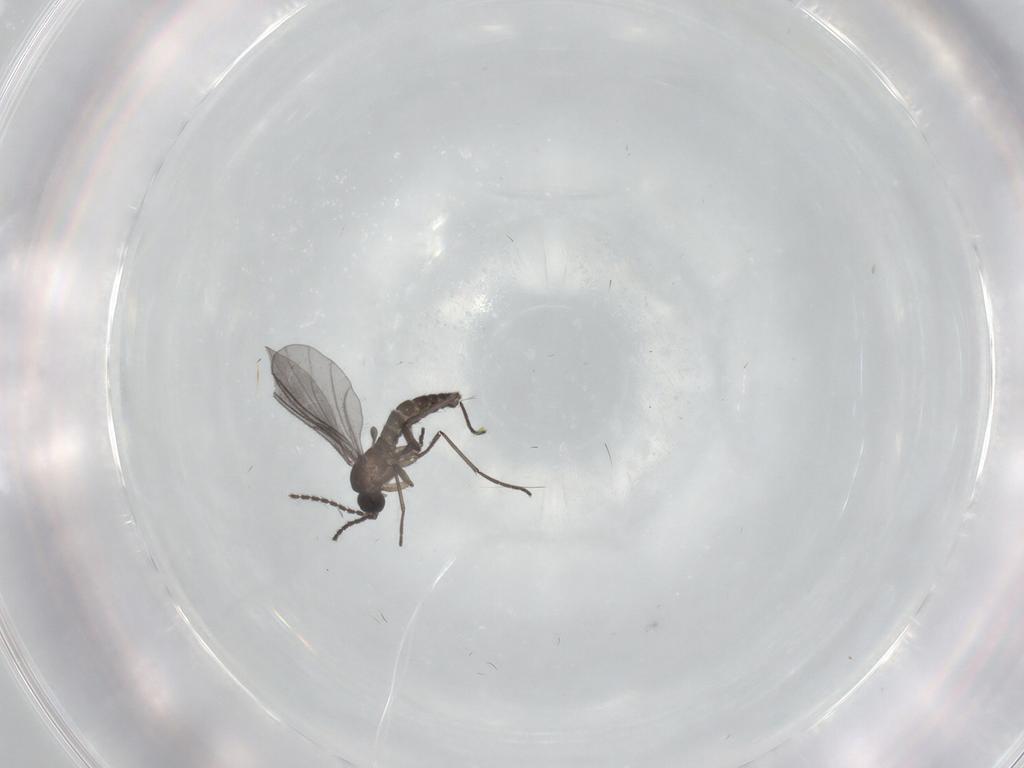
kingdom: Animalia
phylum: Arthropoda
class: Insecta
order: Diptera
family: Sciaridae
